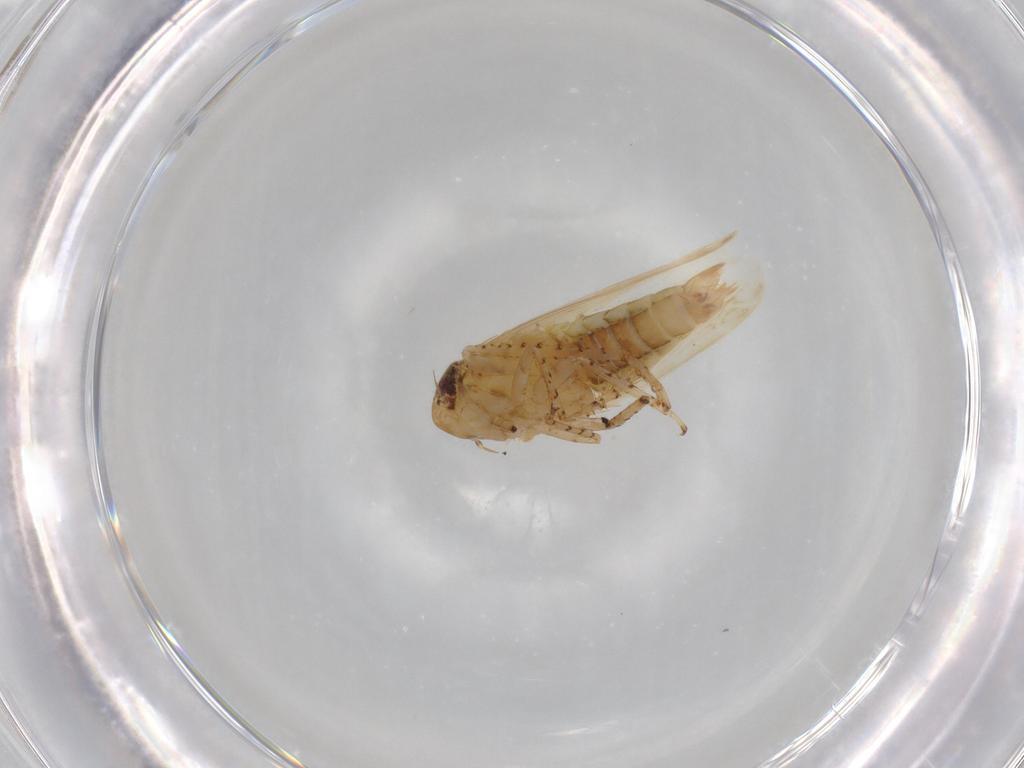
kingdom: Animalia
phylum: Arthropoda
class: Insecta
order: Hemiptera
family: Cicadellidae
